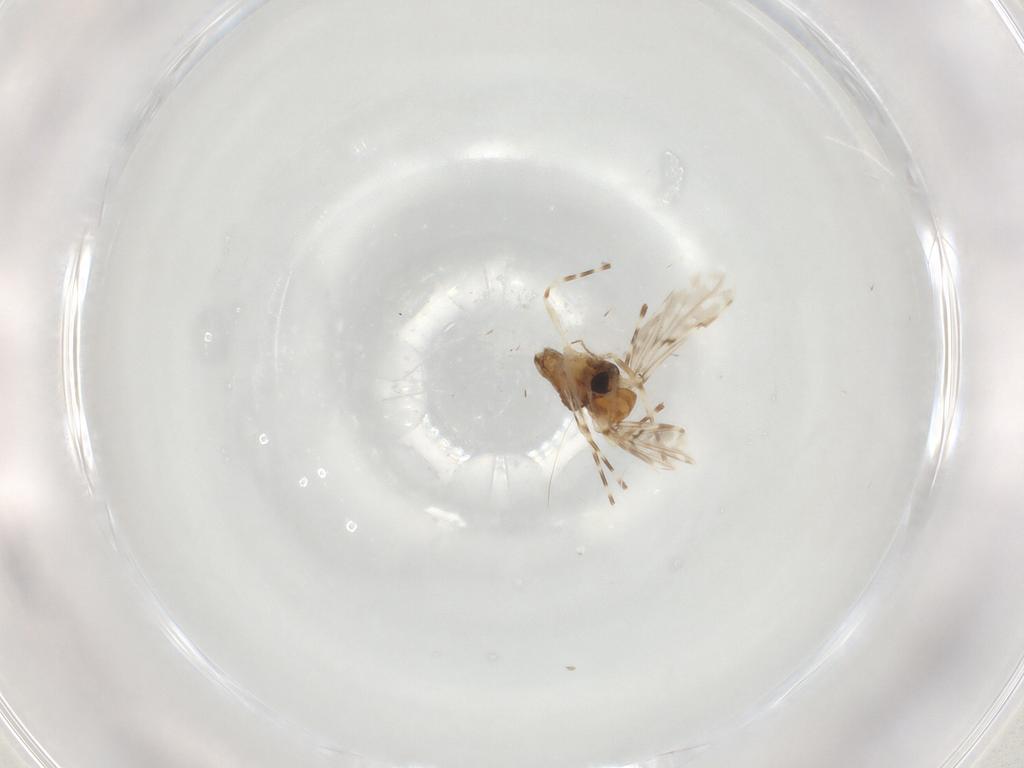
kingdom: Animalia
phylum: Arthropoda
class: Insecta
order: Diptera
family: Chironomidae
